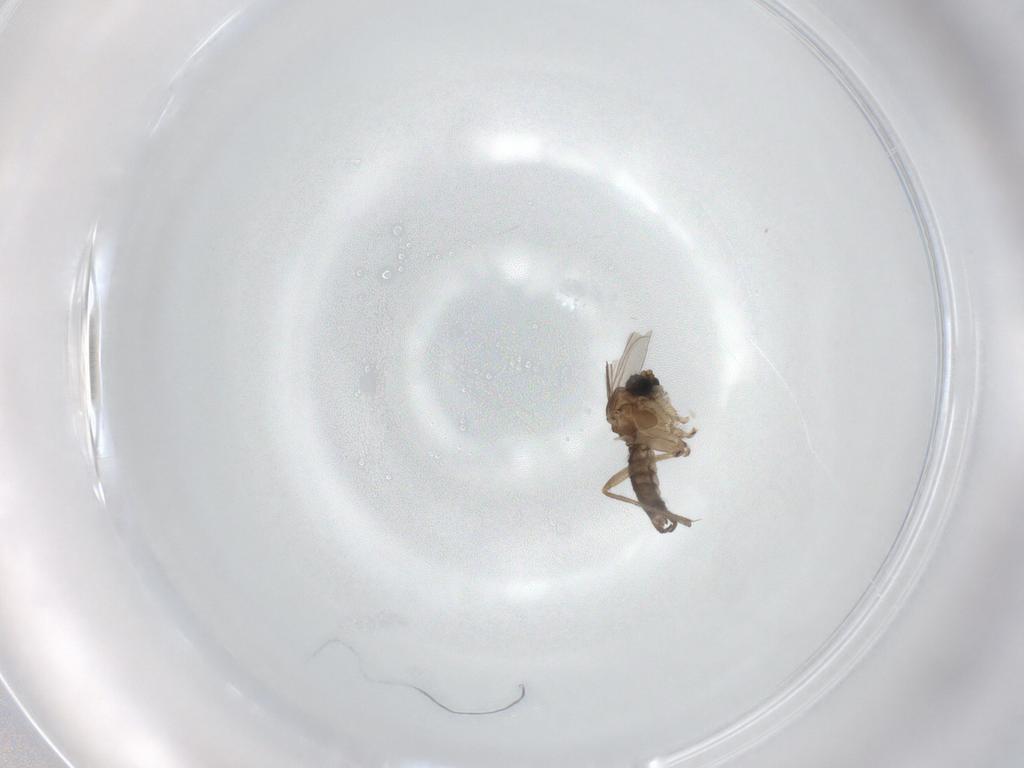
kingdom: Animalia
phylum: Arthropoda
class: Insecta
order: Diptera
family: Sciaridae
